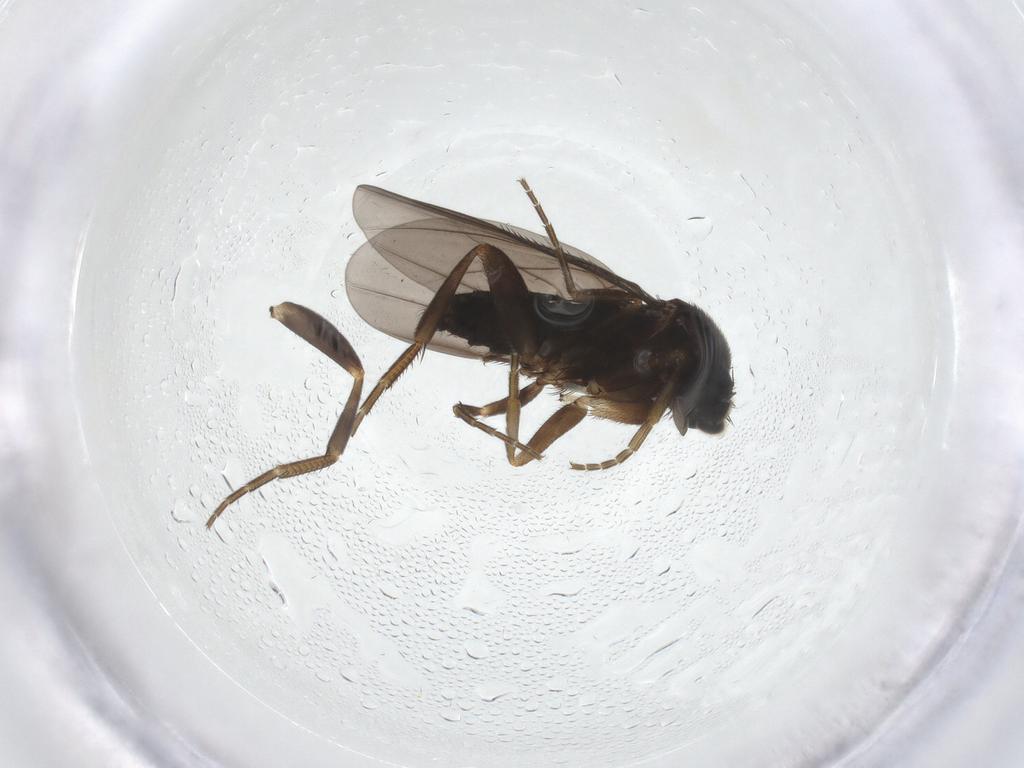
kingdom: Animalia
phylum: Arthropoda
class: Insecta
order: Diptera
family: Phoridae
